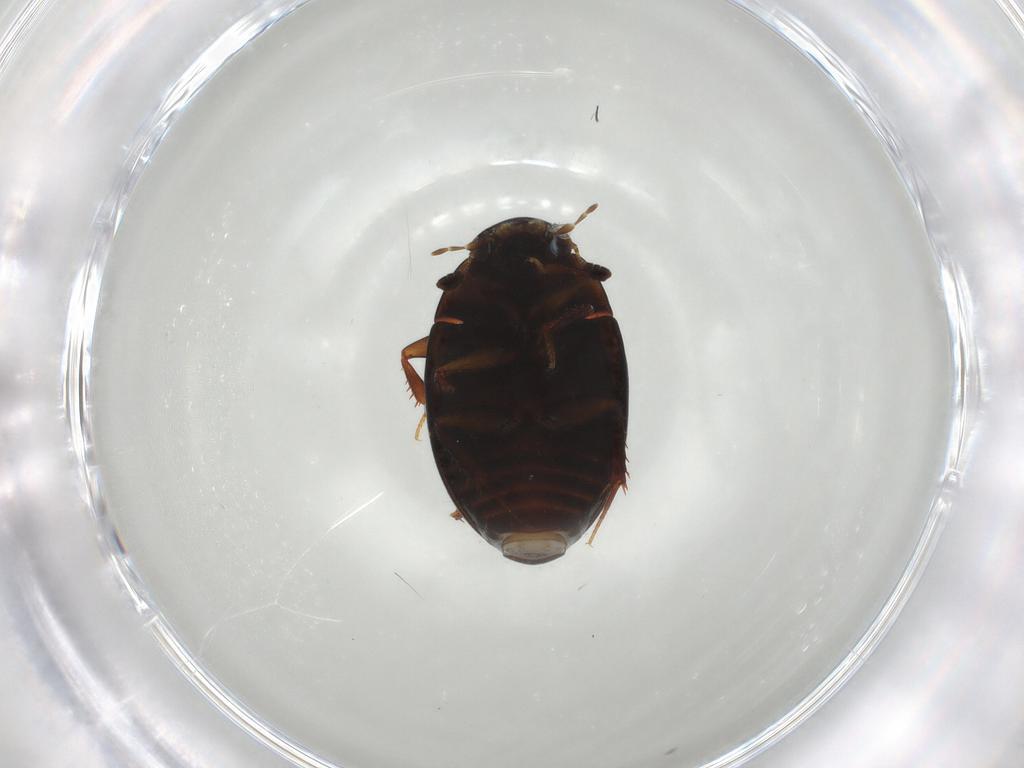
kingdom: Animalia
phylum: Arthropoda
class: Insecta
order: Coleoptera
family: Hydrophilidae
